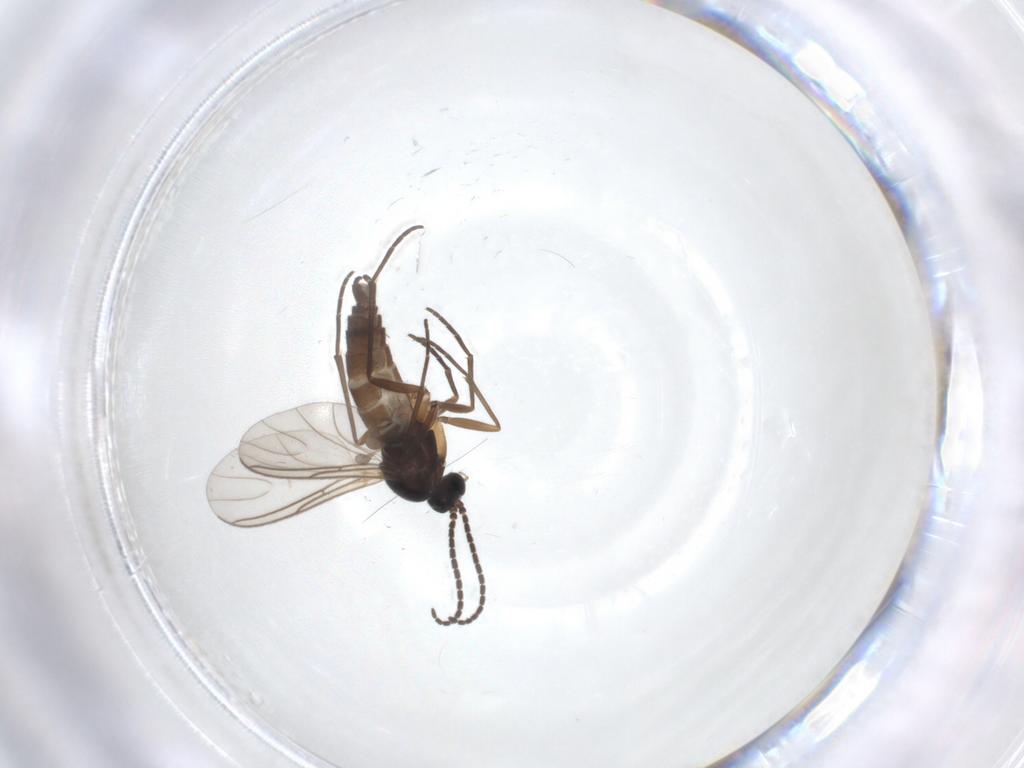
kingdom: Animalia
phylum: Arthropoda
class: Insecta
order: Diptera
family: Sciaridae
